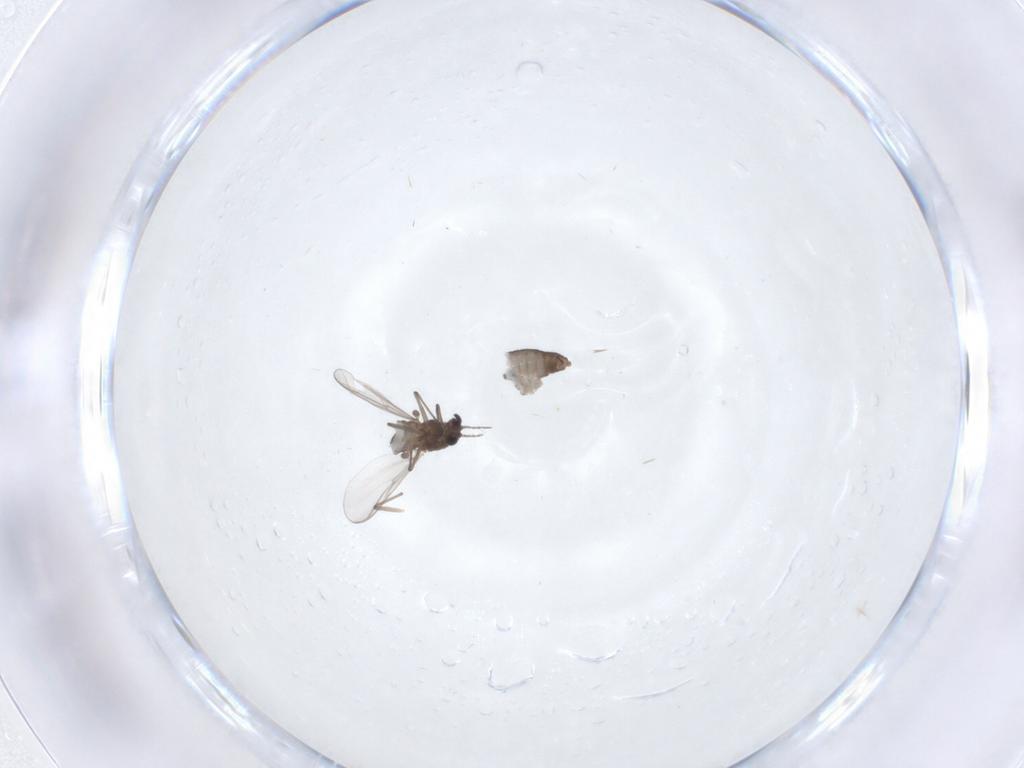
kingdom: Animalia
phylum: Arthropoda
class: Insecta
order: Diptera
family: Chironomidae
